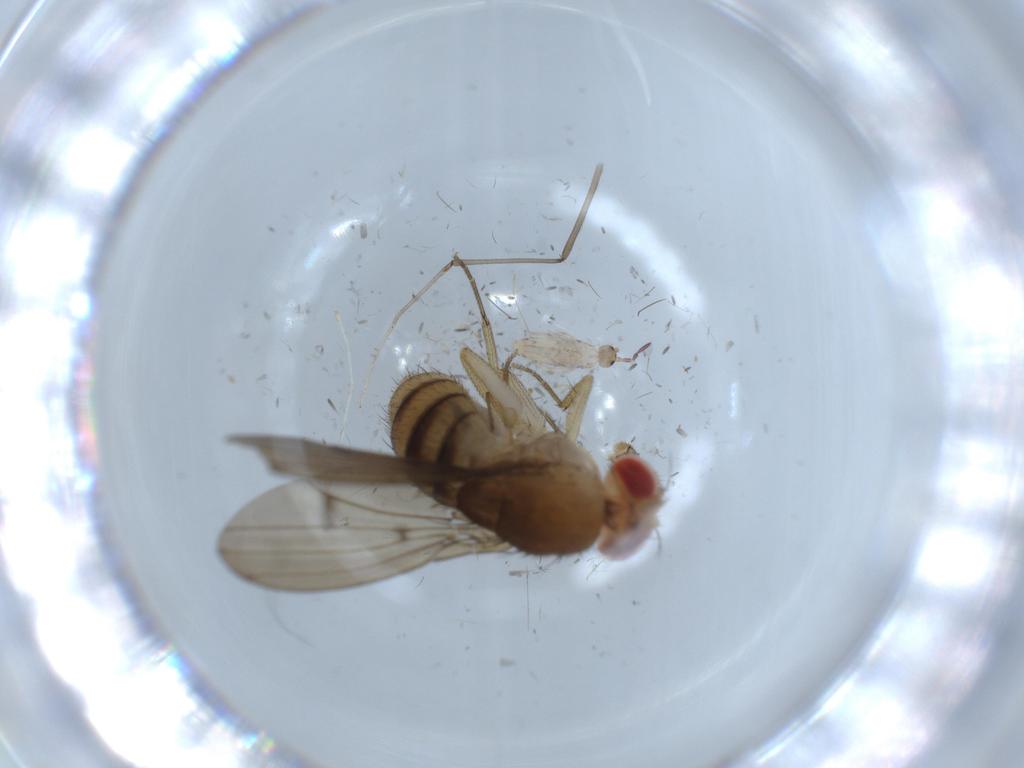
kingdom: Animalia
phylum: Arthropoda
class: Insecta
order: Diptera
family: Drosophilidae
